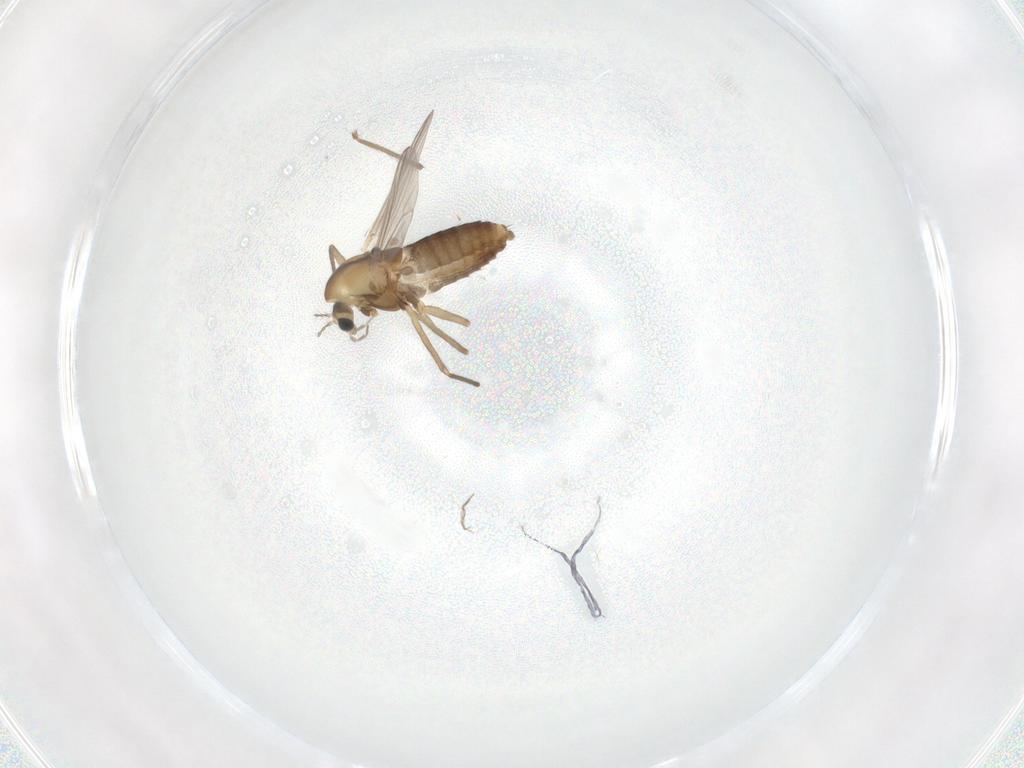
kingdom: Animalia
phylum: Arthropoda
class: Insecta
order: Diptera
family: Chironomidae
